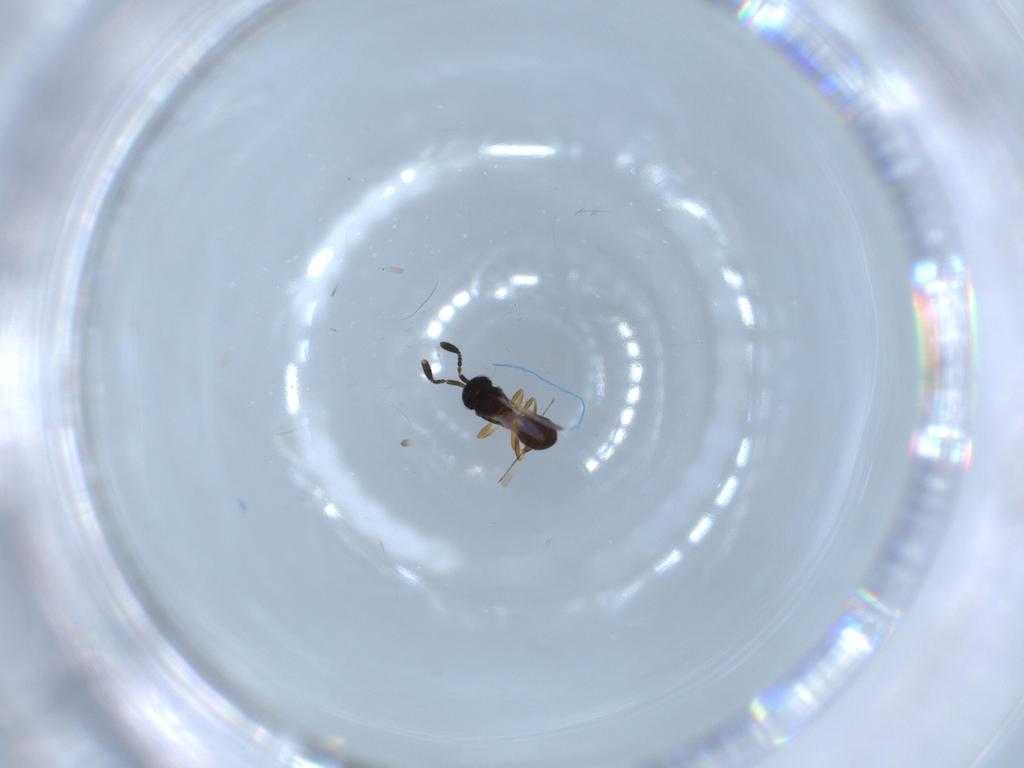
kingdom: Animalia
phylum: Arthropoda
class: Insecta
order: Hymenoptera
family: Scelionidae
